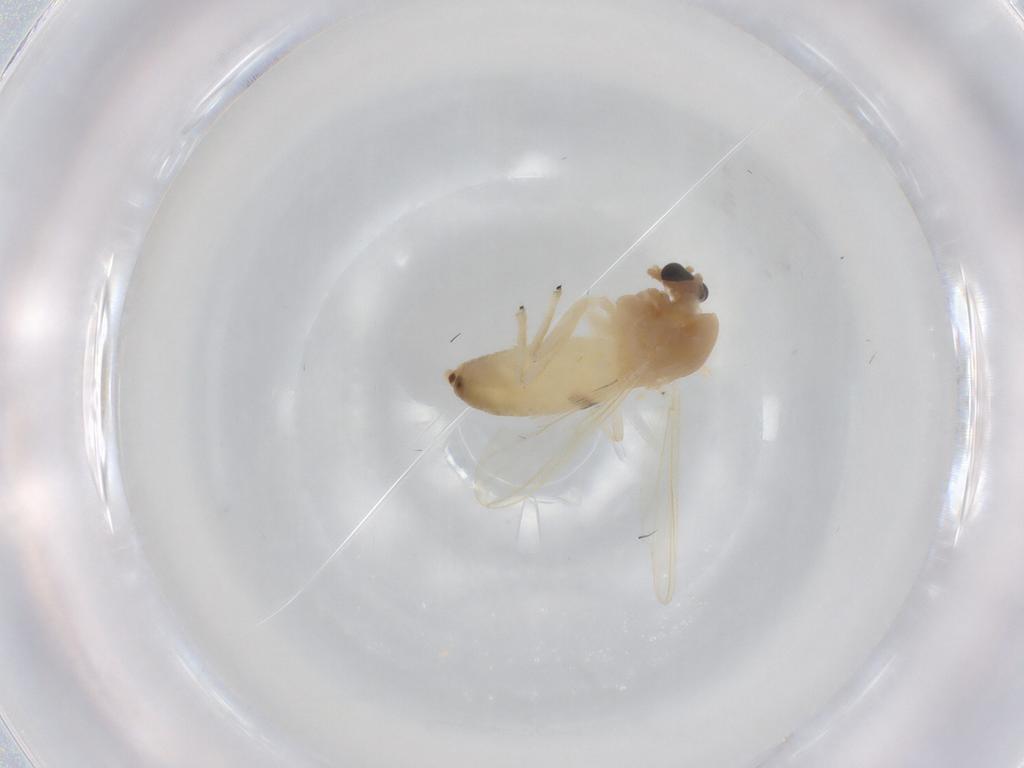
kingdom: Animalia
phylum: Arthropoda
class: Insecta
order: Diptera
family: Chironomidae
